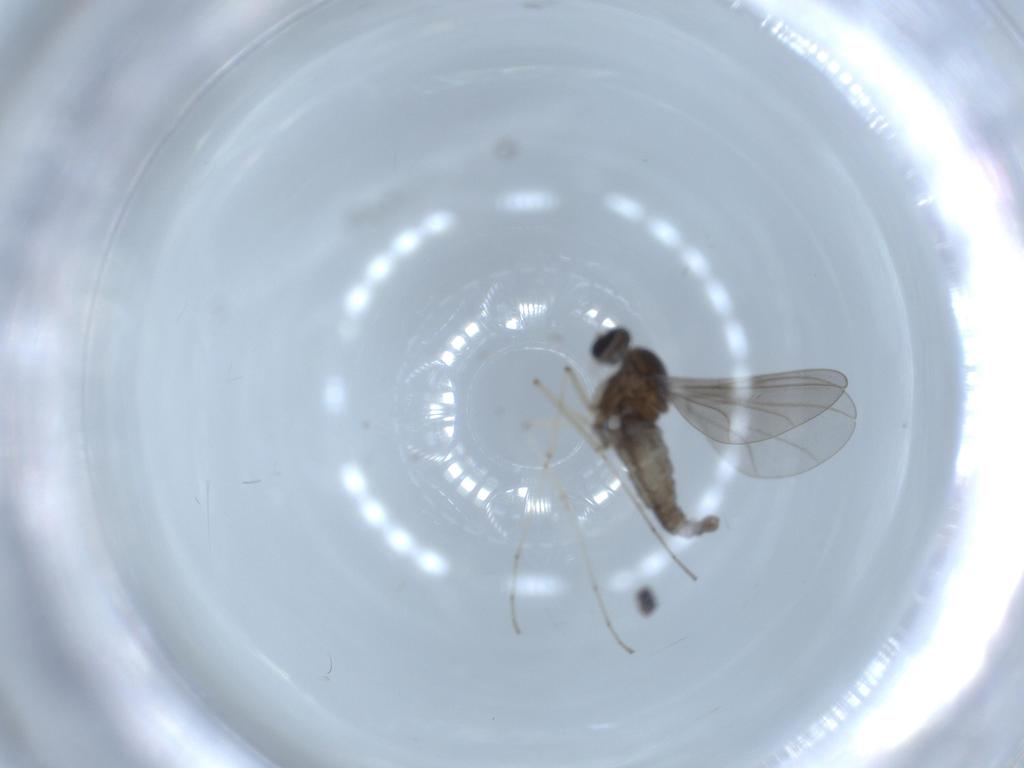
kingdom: Animalia
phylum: Arthropoda
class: Insecta
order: Diptera
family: Cecidomyiidae
